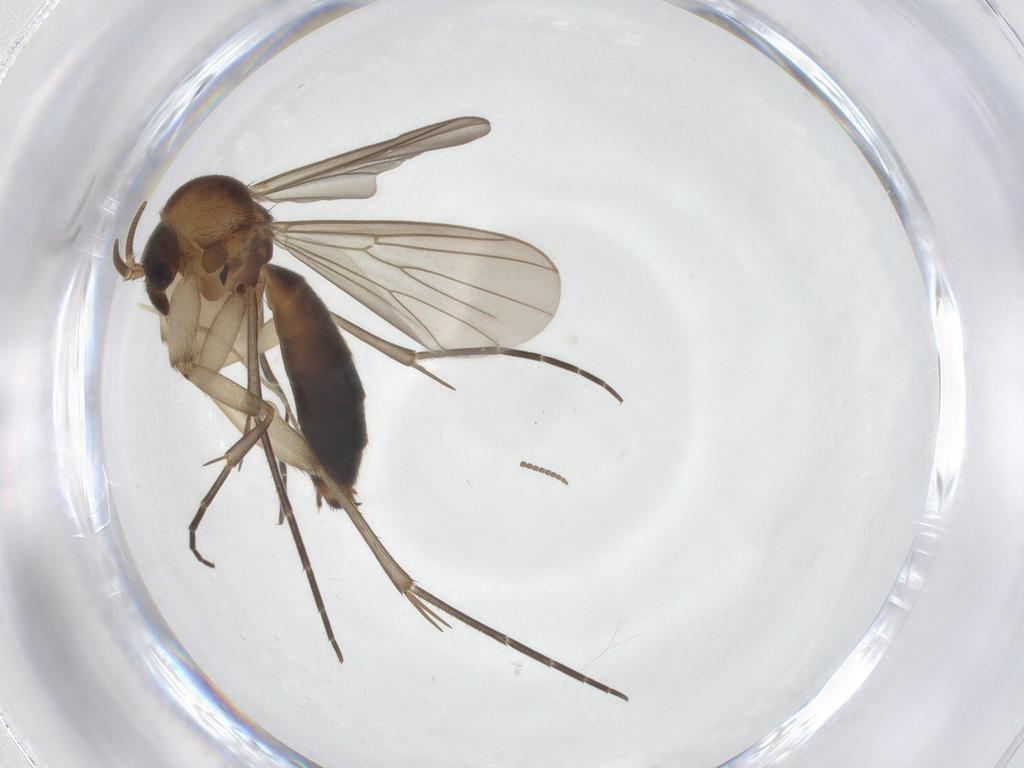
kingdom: Animalia
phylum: Arthropoda
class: Insecta
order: Diptera
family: Mycetophilidae
